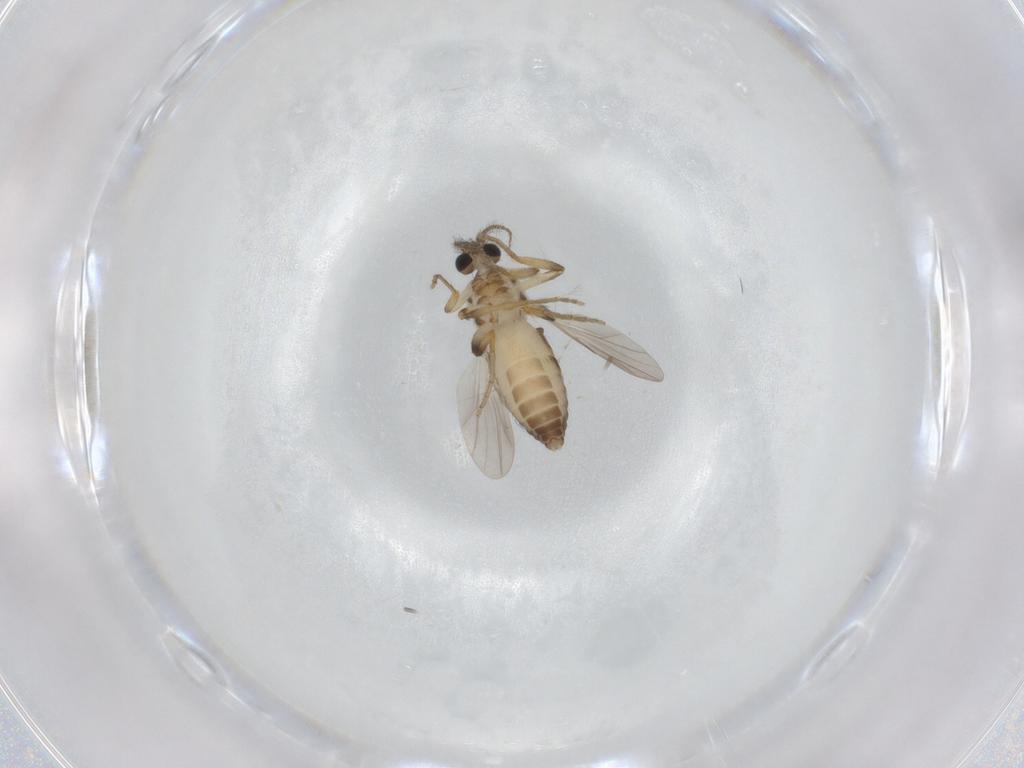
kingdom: Animalia
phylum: Arthropoda
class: Insecta
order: Diptera
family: Ceratopogonidae
